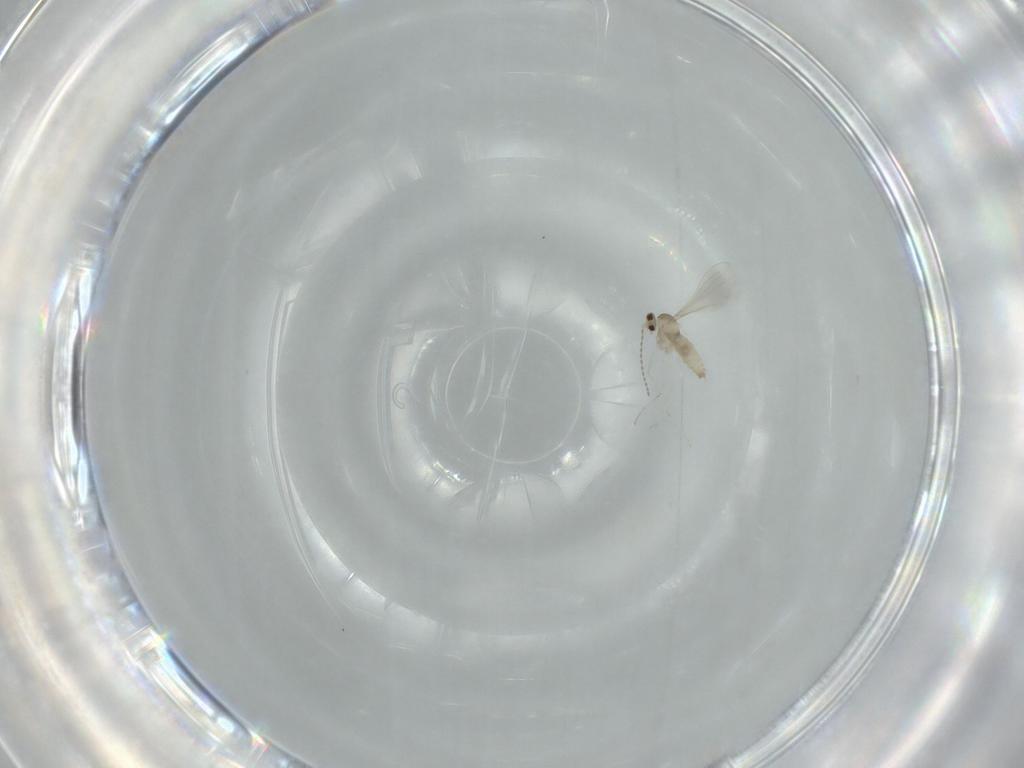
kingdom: Animalia
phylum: Arthropoda
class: Insecta
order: Diptera
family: Cecidomyiidae
